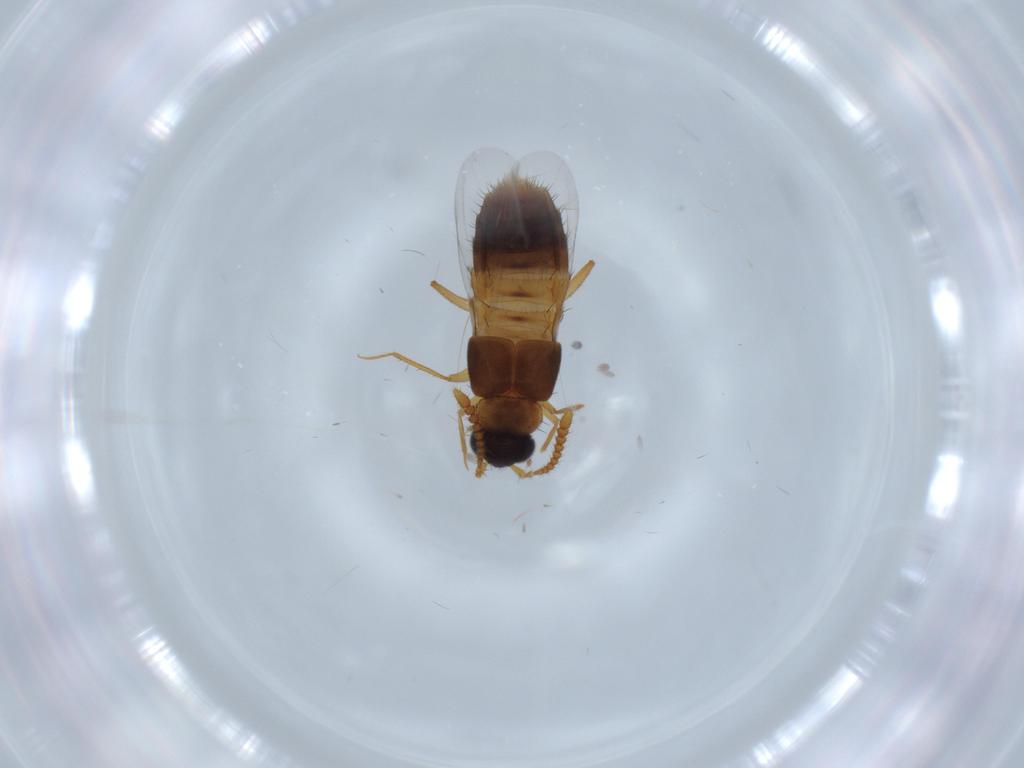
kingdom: Animalia
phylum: Arthropoda
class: Insecta
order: Coleoptera
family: Staphylinidae
